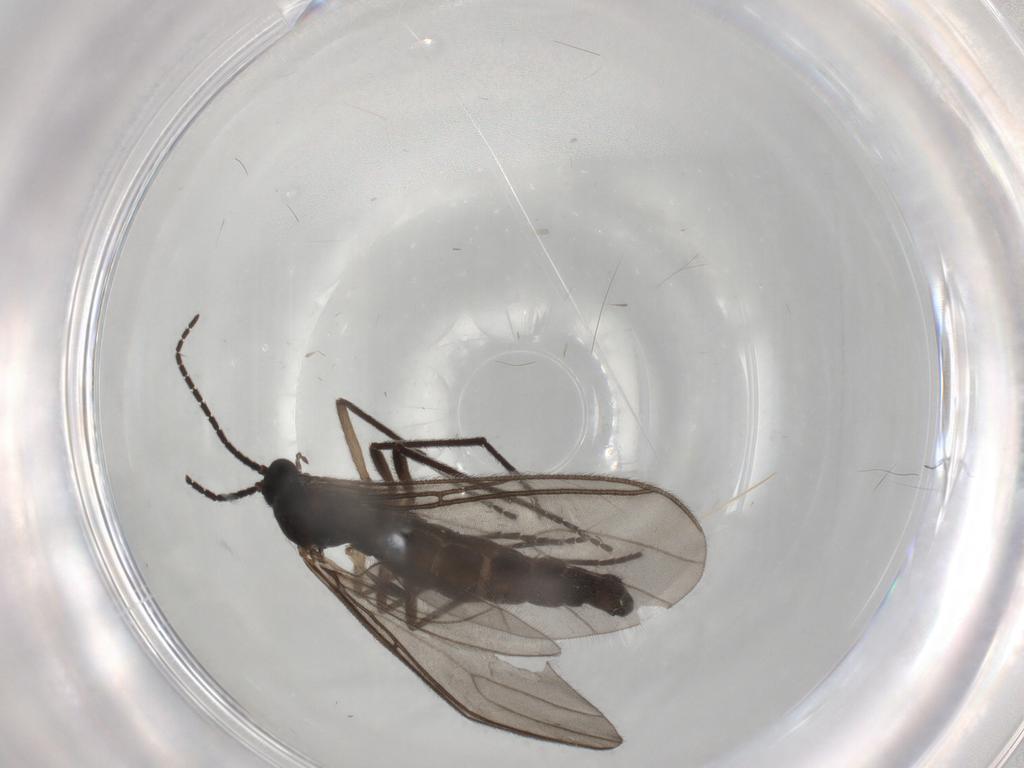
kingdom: Animalia
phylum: Arthropoda
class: Insecta
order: Diptera
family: Sciaridae
